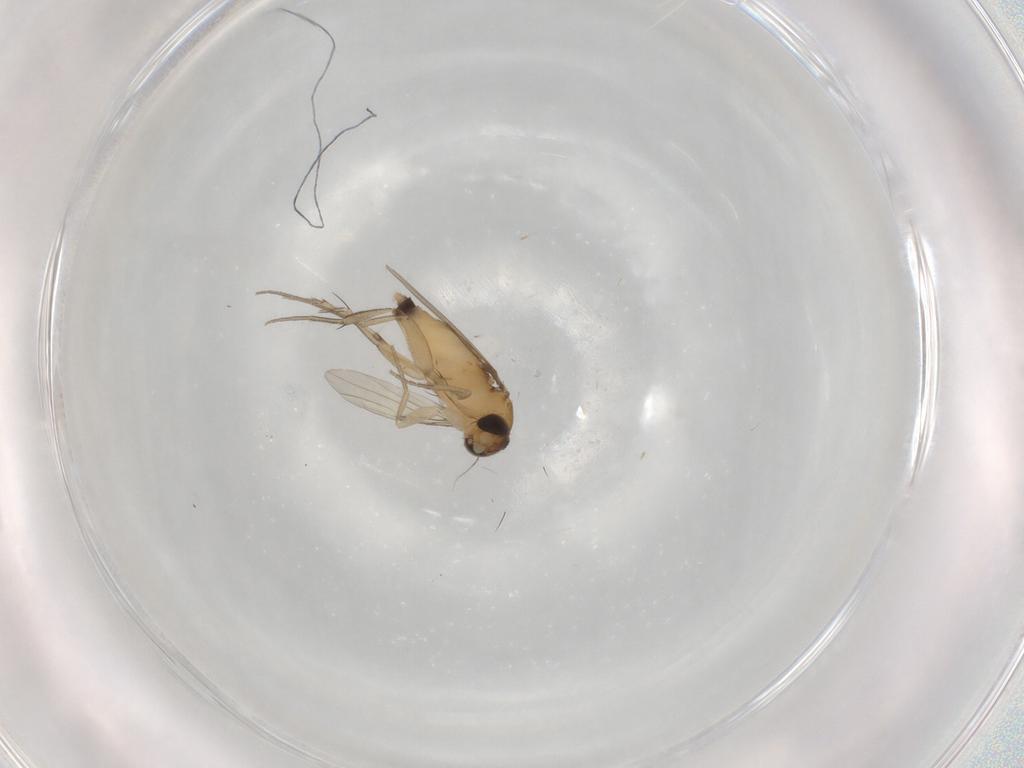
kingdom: Animalia
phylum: Arthropoda
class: Insecta
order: Diptera
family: Phoridae
